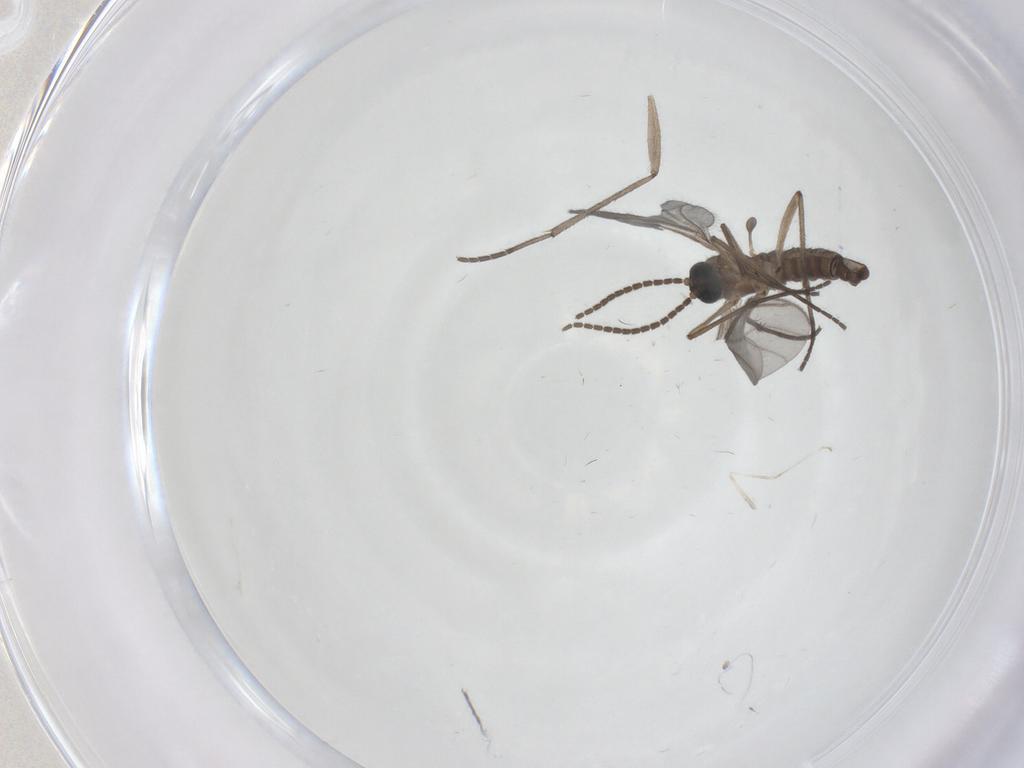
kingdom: Animalia
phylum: Arthropoda
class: Insecta
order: Diptera
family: Sciaridae
